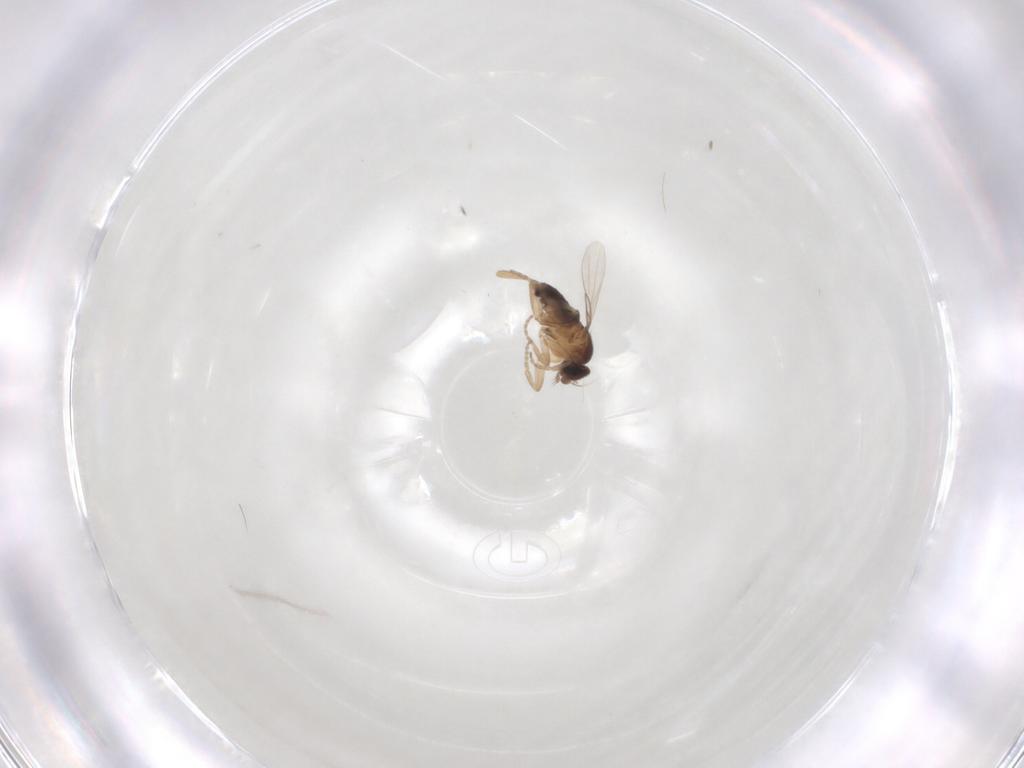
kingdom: Animalia
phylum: Arthropoda
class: Insecta
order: Diptera
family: Phoridae
